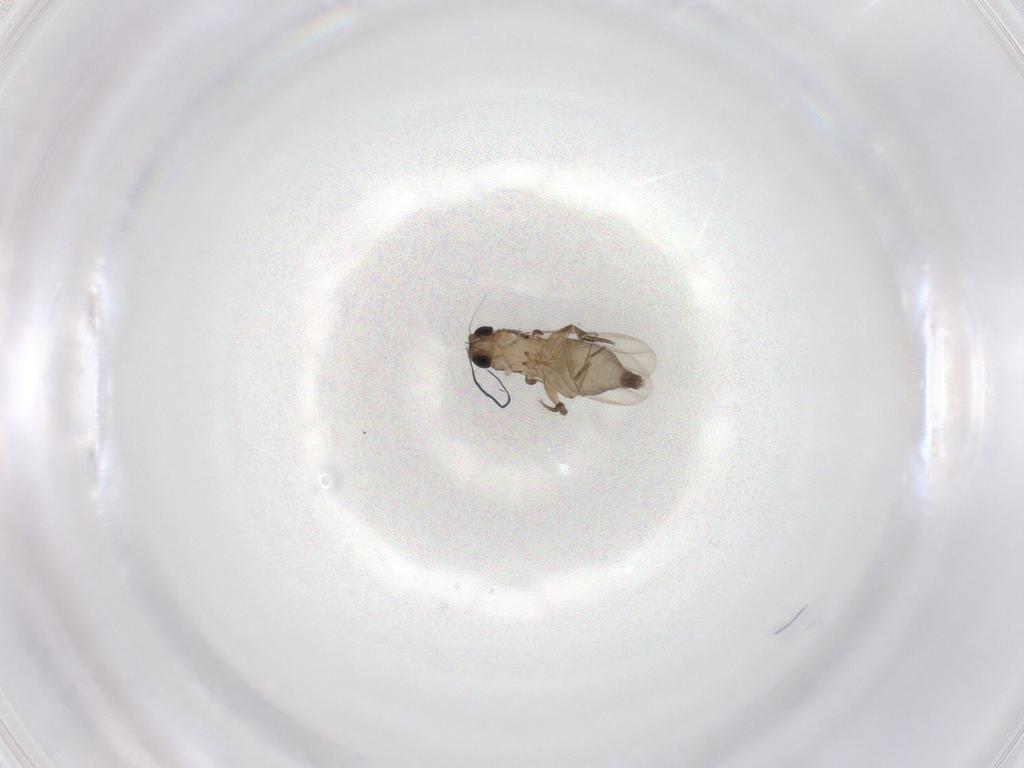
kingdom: Animalia
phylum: Arthropoda
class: Insecta
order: Diptera
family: Phoridae
